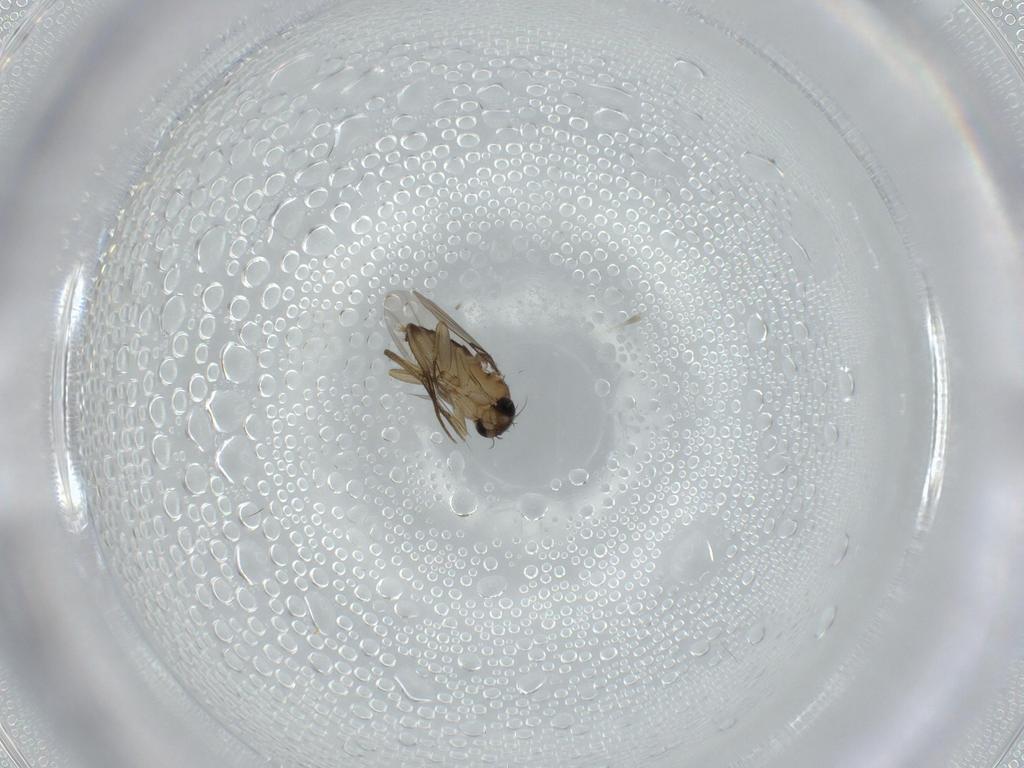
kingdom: Animalia
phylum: Arthropoda
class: Insecta
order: Diptera
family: Phoridae
